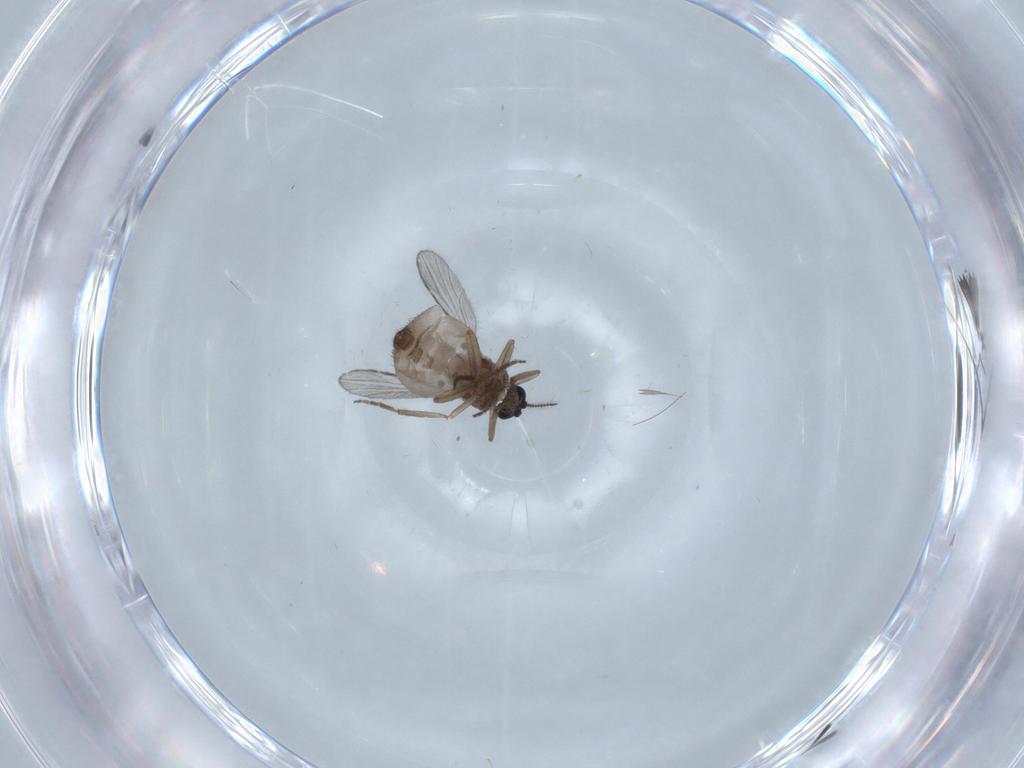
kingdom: Animalia
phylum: Arthropoda
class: Insecta
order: Diptera
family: Cecidomyiidae
